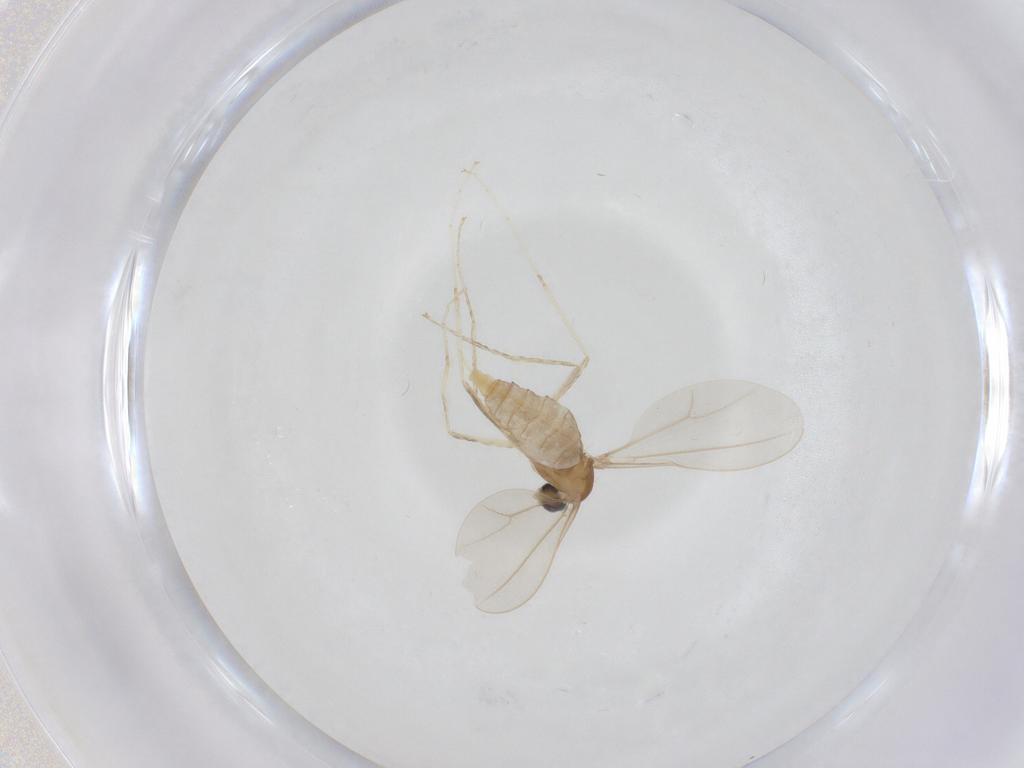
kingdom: Animalia
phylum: Arthropoda
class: Insecta
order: Diptera
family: Cecidomyiidae
